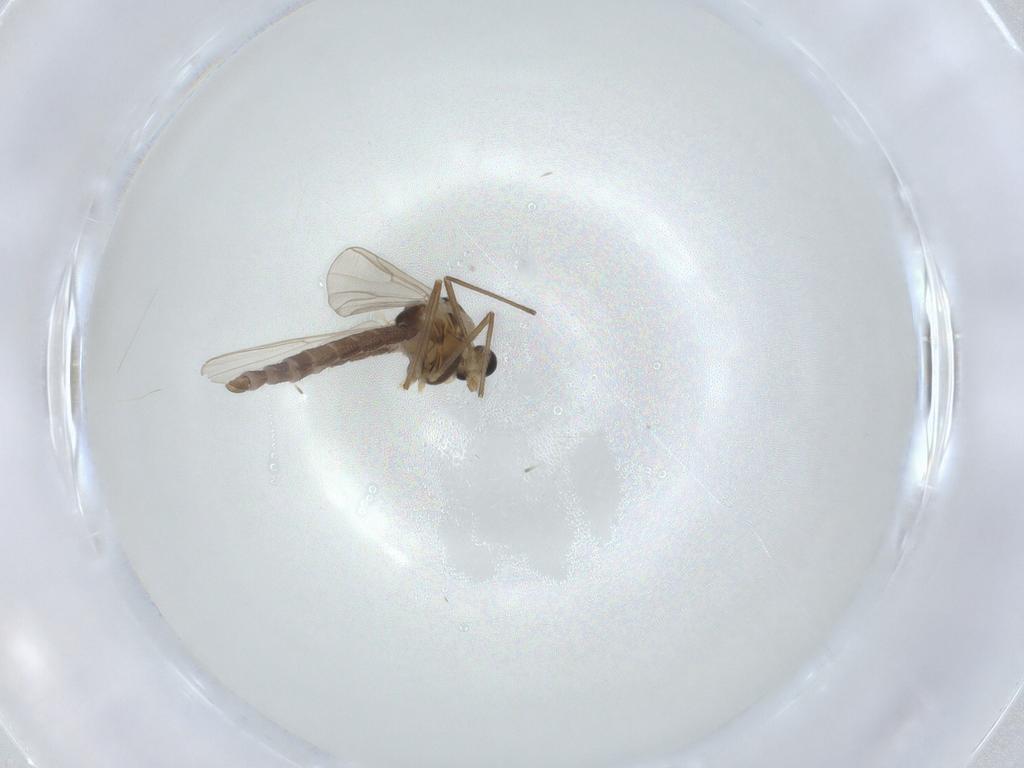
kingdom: Animalia
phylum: Arthropoda
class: Insecta
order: Diptera
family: Chironomidae
